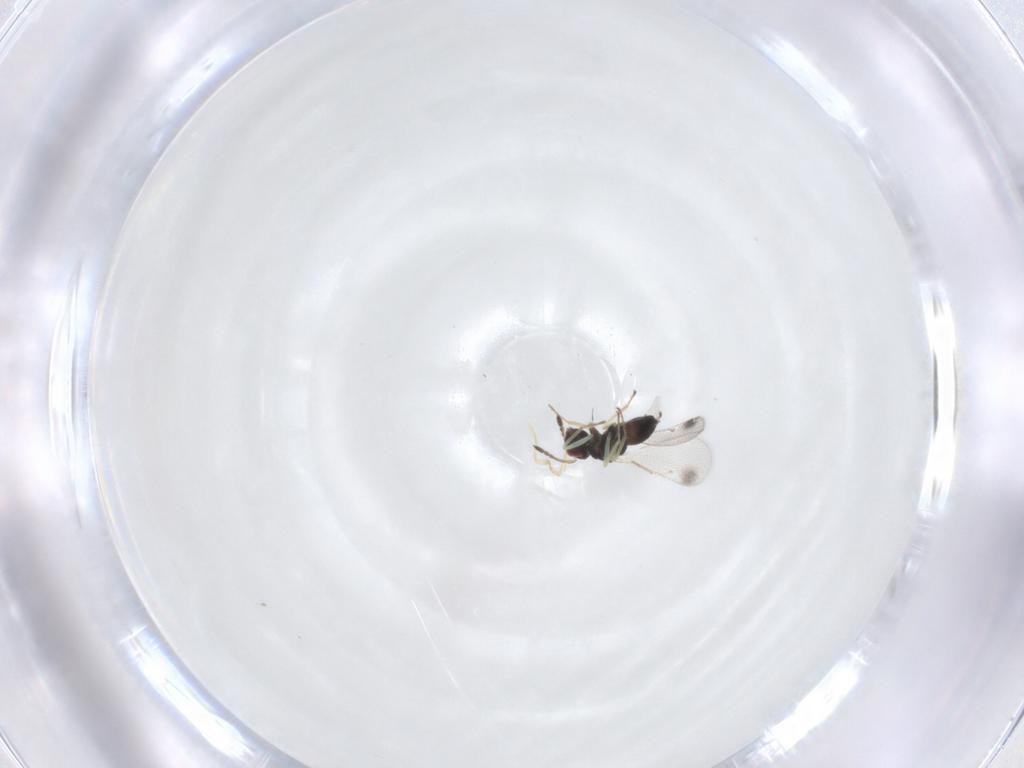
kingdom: Animalia
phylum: Arthropoda
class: Insecta
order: Hymenoptera
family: Eulophidae
